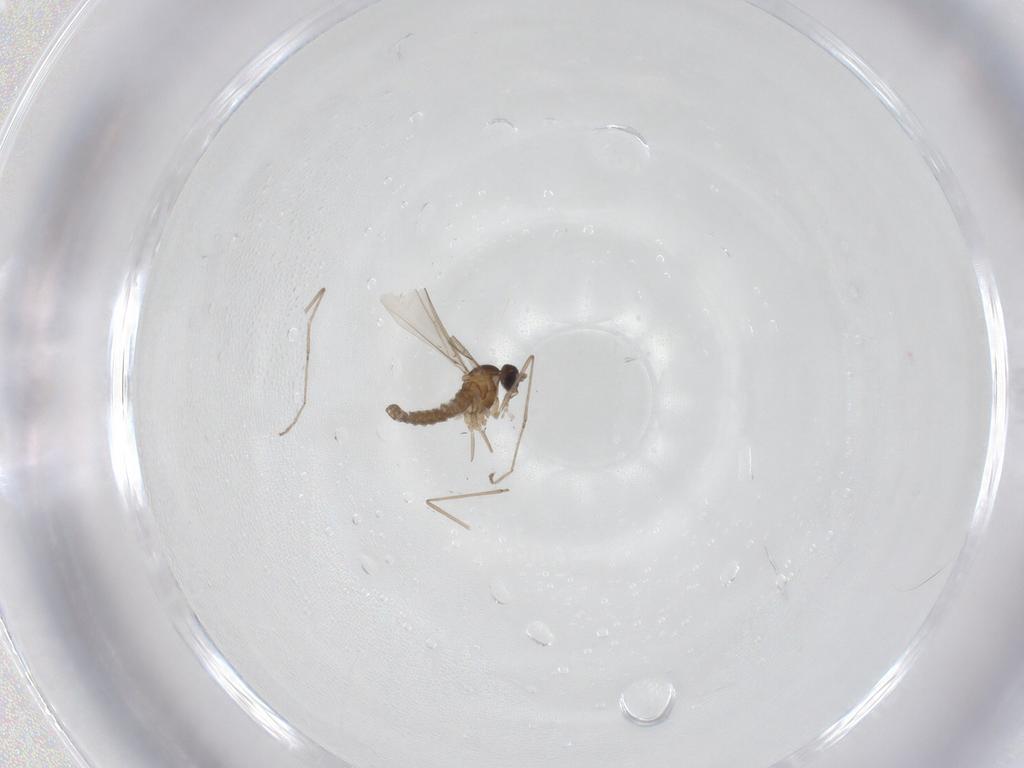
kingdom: Animalia
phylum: Arthropoda
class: Insecta
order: Diptera
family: Cecidomyiidae
